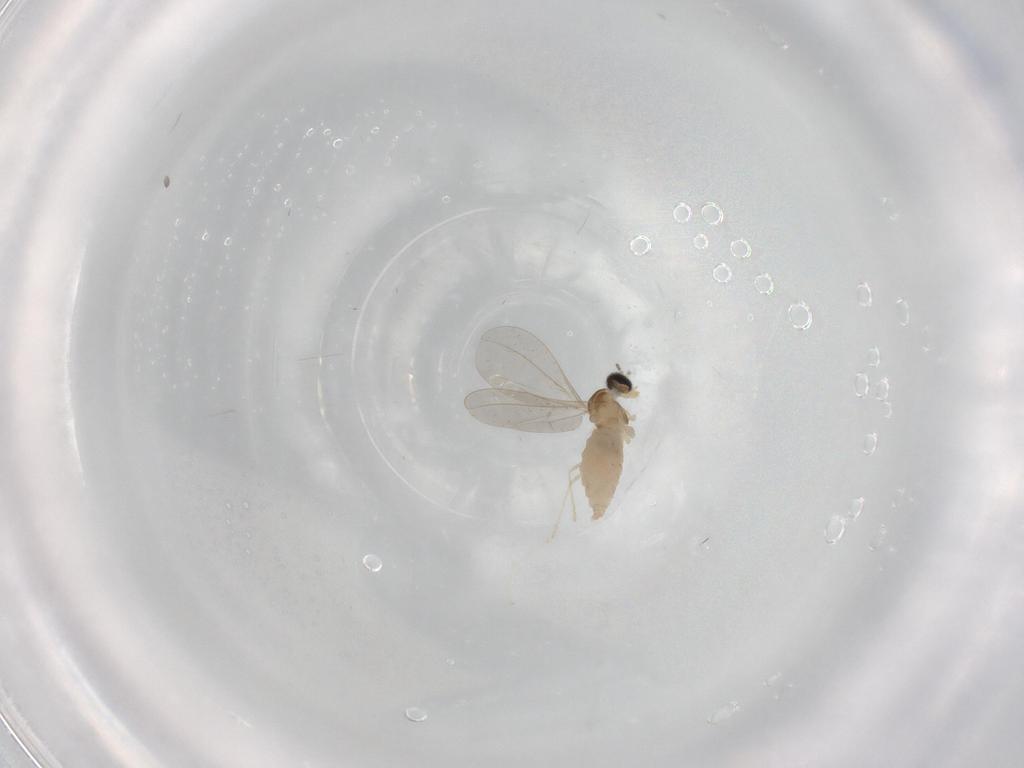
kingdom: Animalia
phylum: Arthropoda
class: Insecta
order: Diptera
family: Cecidomyiidae
